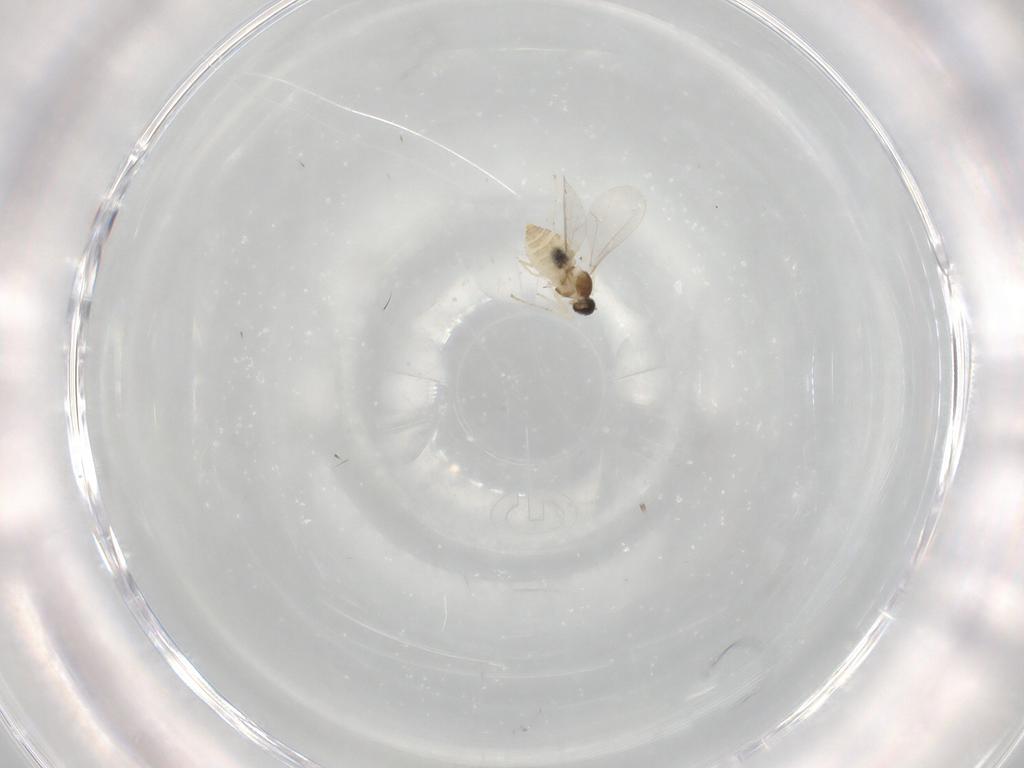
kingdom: Animalia
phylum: Arthropoda
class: Insecta
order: Diptera
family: Cecidomyiidae
